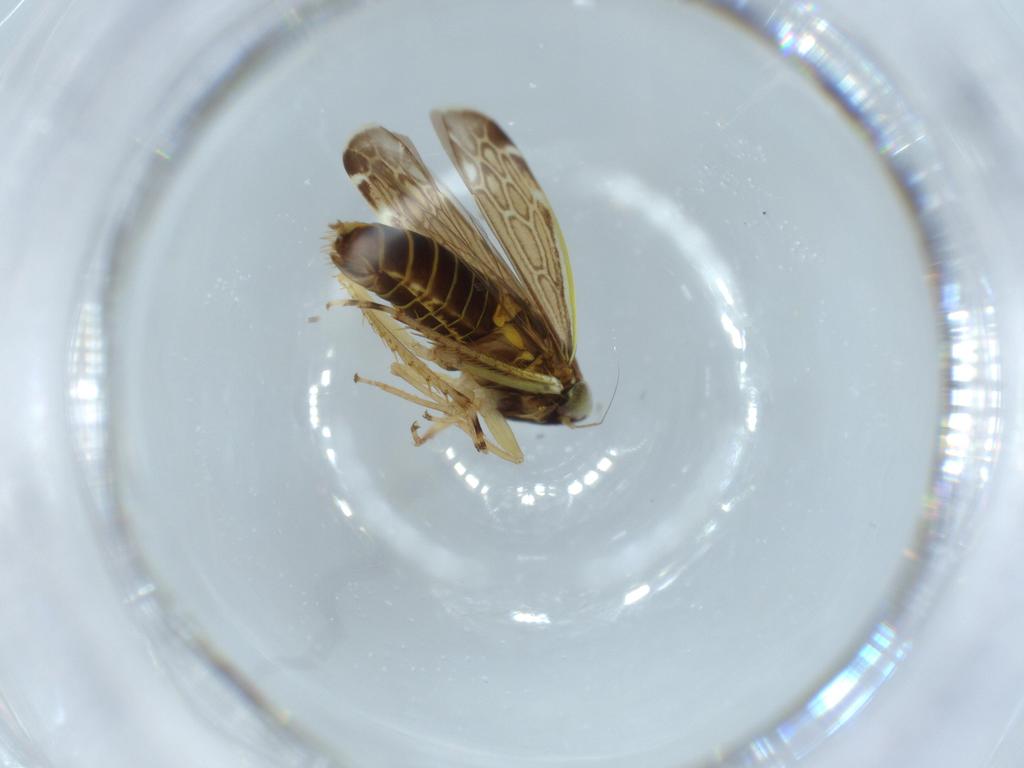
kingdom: Animalia
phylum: Arthropoda
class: Insecta
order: Hemiptera
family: Cicadellidae
